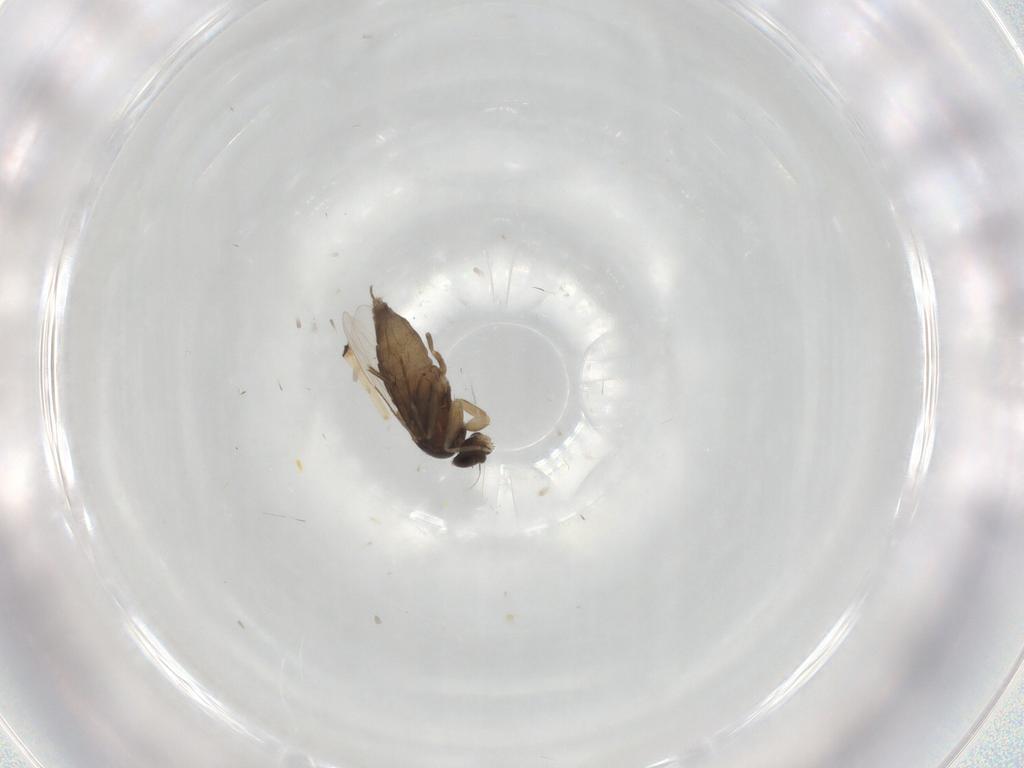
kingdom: Animalia
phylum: Arthropoda
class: Insecta
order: Diptera
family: Phoridae
